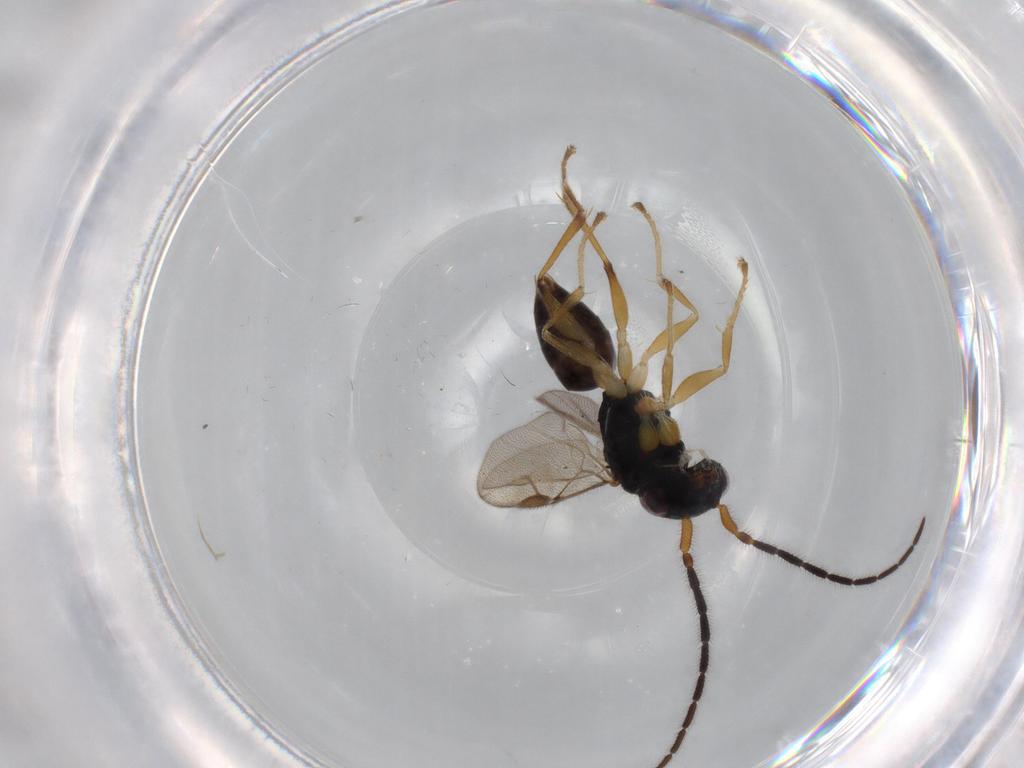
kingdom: Animalia
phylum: Arthropoda
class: Insecta
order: Hymenoptera
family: Dryinidae
